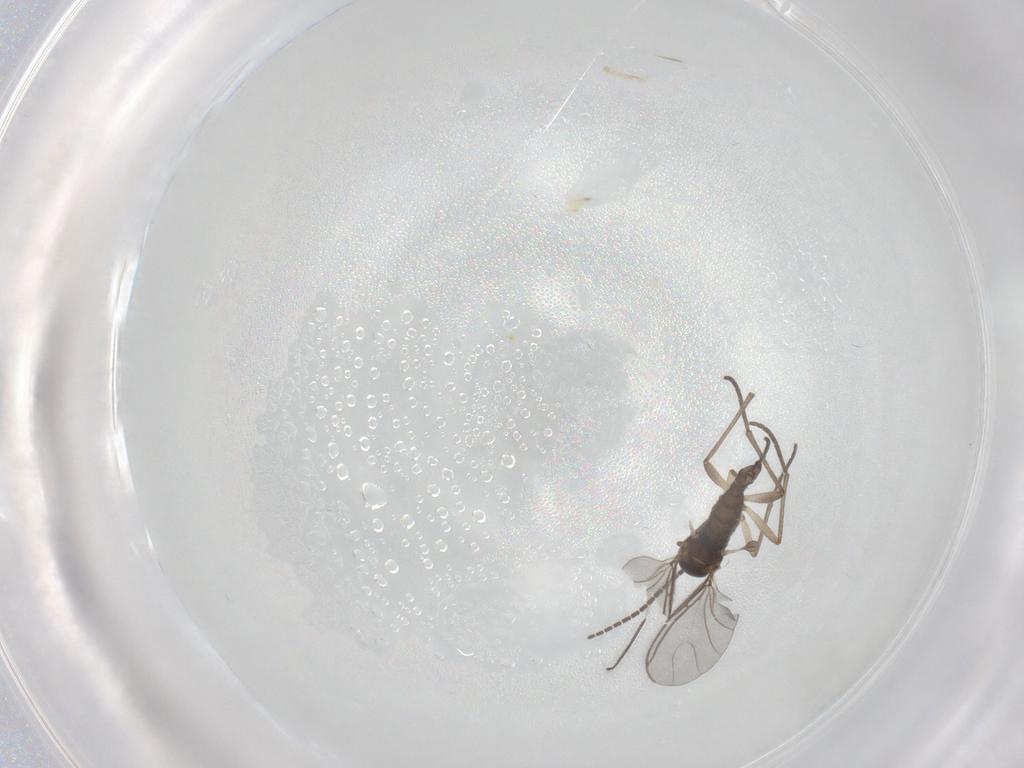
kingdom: Animalia
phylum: Arthropoda
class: Insecta
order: Diptera
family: Sciaridae
